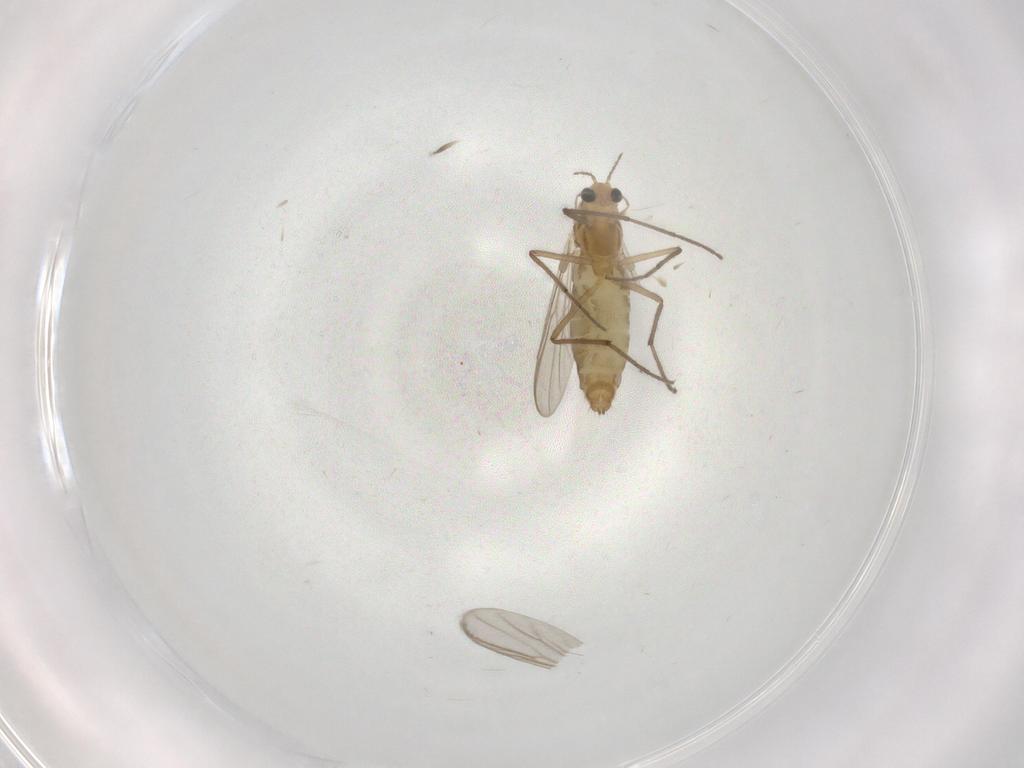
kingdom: Animalia
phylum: Arthropoda
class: Insecta
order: Diptera
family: Chironomidae
